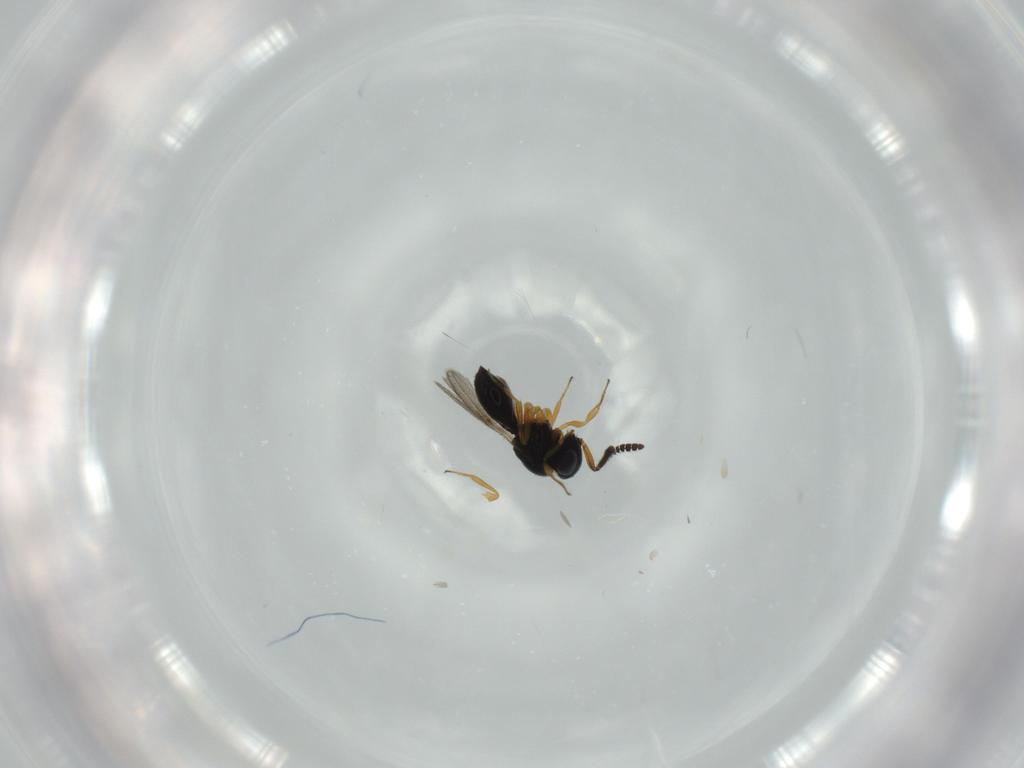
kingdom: Animalia
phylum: Arthropoda
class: Insecta
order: Hymenoptera
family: Scelionidae
